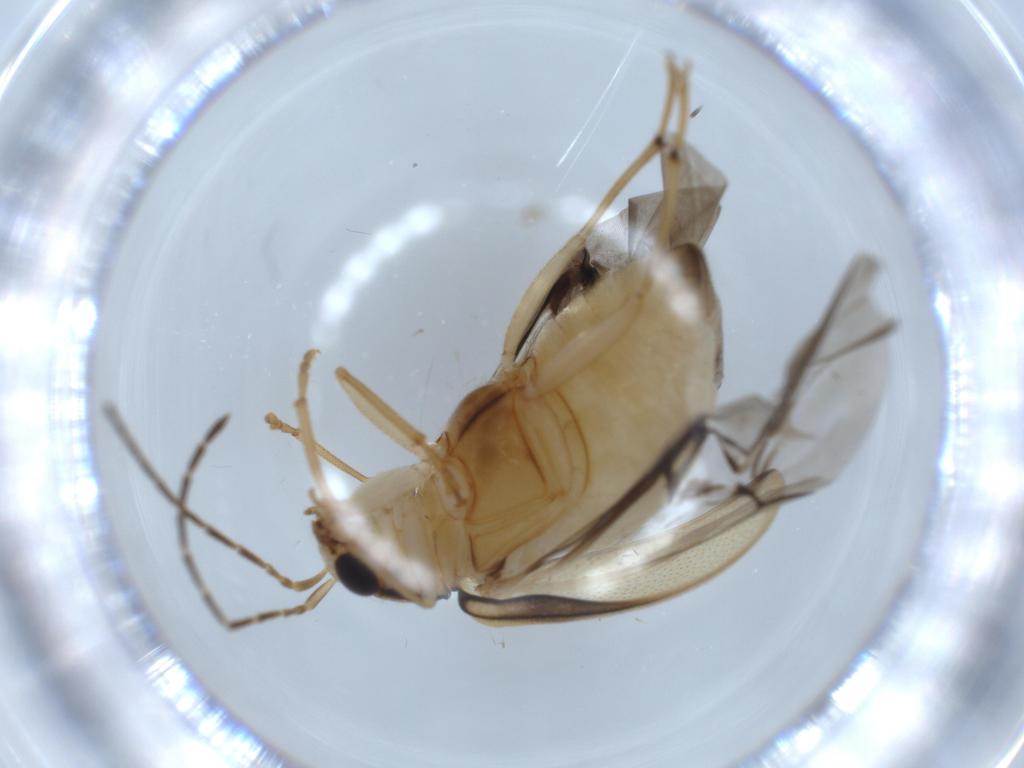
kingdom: Animalia
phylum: Arthropoda
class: Insecta
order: Coleoptera
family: Chrysomelidae
